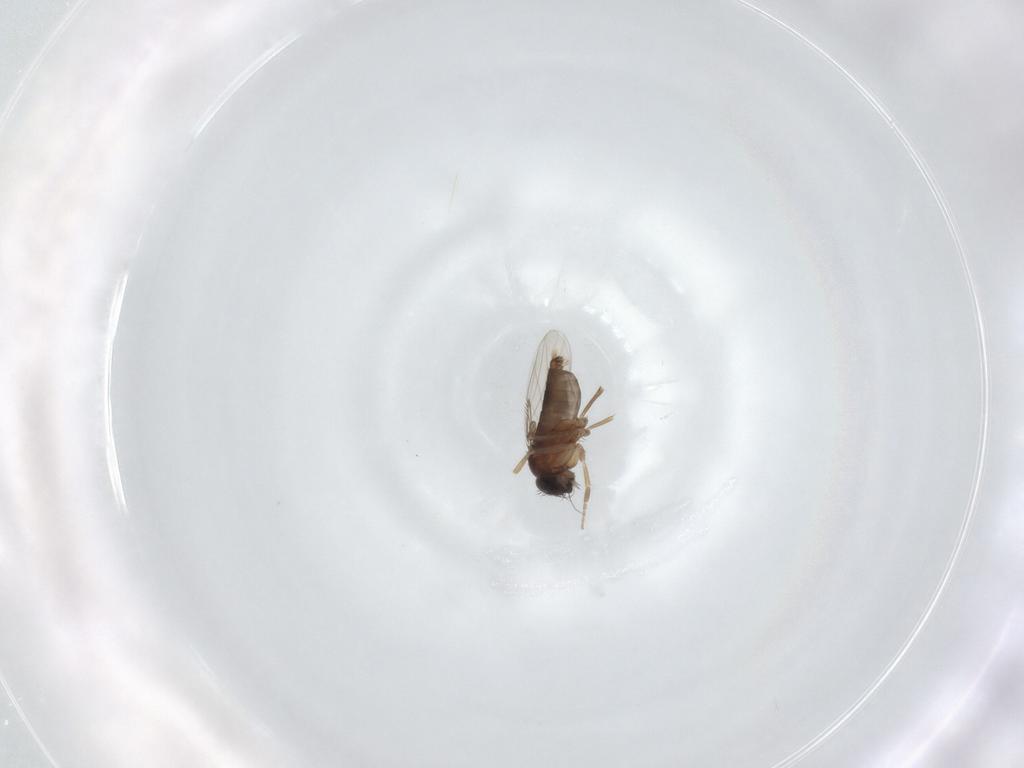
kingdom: Animalia
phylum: Arthropoda
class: Insecta
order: Diptera
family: Phoridae
